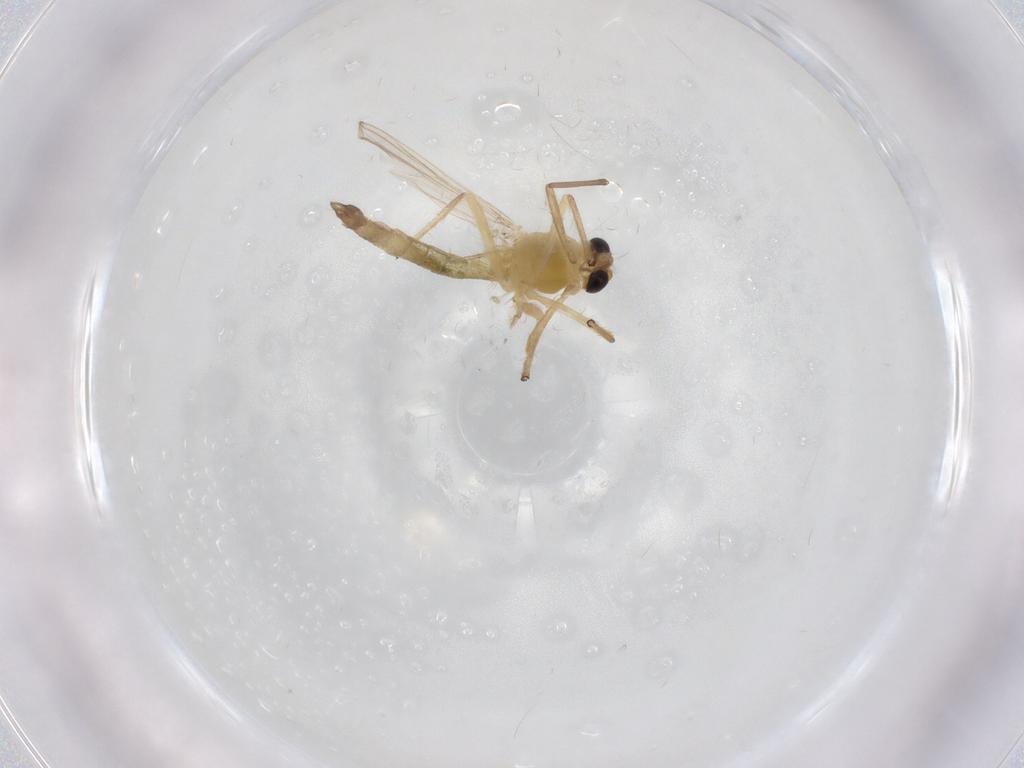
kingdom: Animalia
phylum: Arthropoda
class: Insecta
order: Diptera
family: Chironomidae
